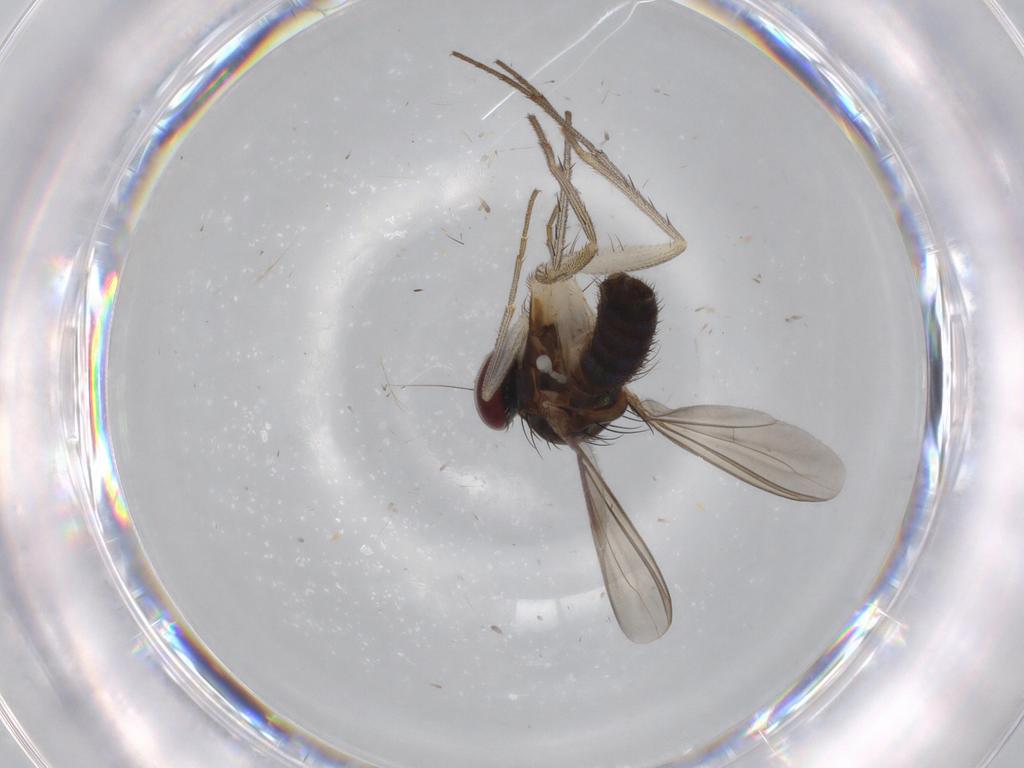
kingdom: Animalia
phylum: Arthropoda
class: Insecta
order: Diptera
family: Dolichopodidae
